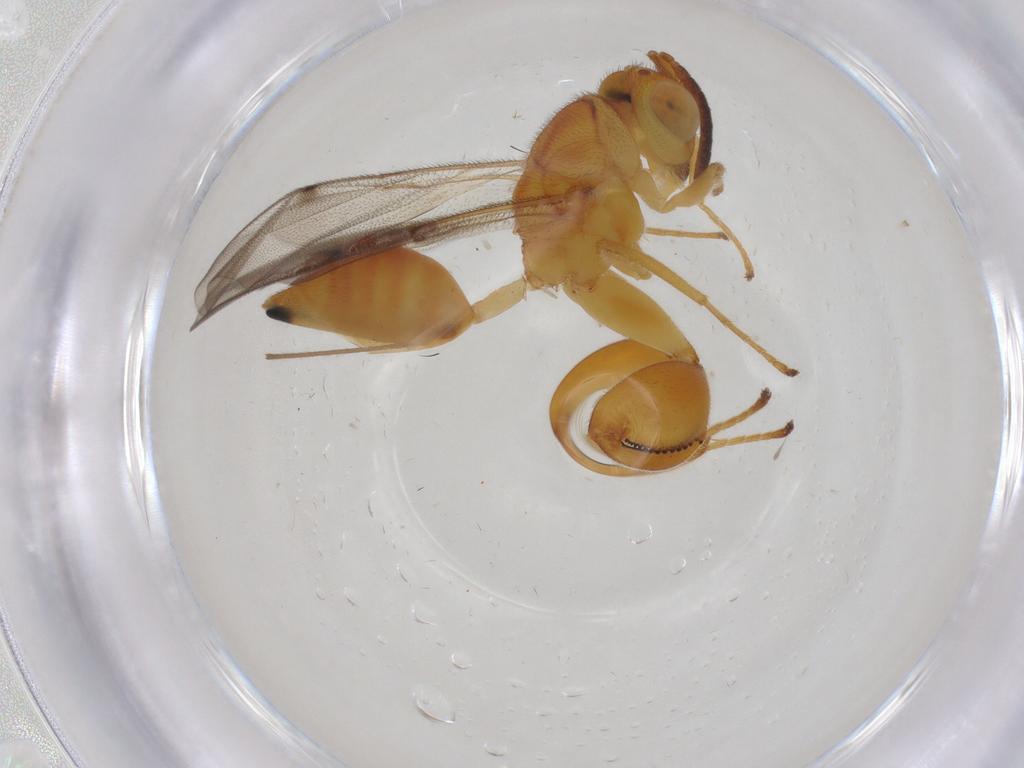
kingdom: Animalia
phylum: Arthropoda
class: Insecta
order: Hymenoptera
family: Chalcididae
